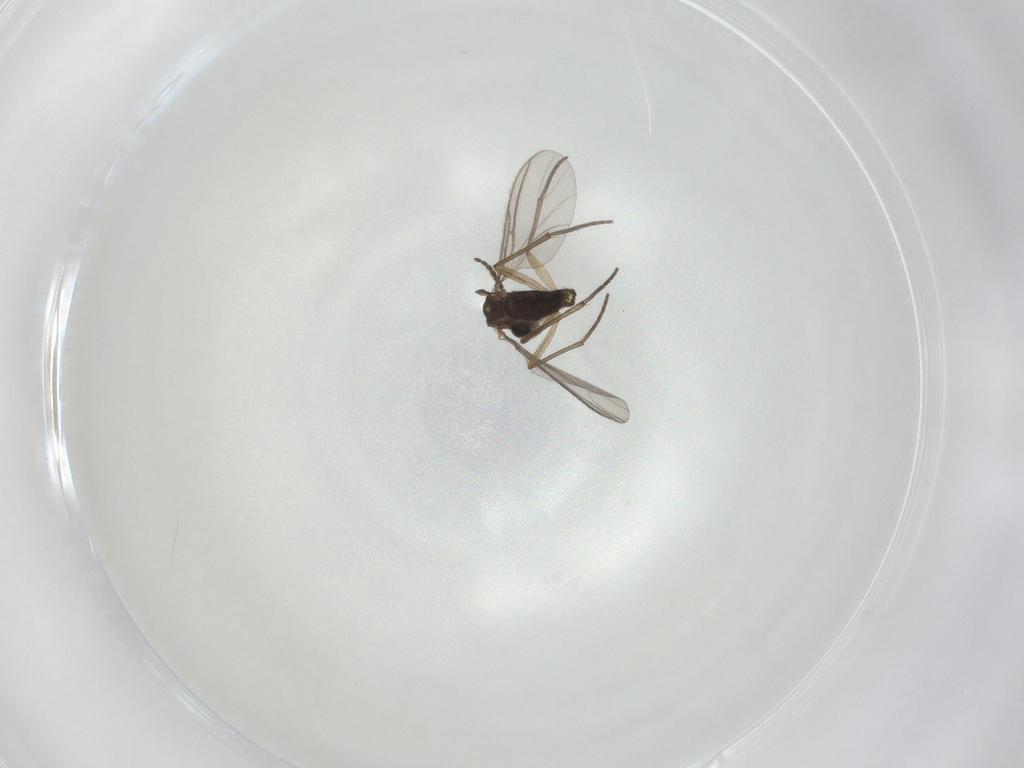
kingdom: Animalia
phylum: Arthropoda
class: Insecta
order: Diptera
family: Sciaridae
